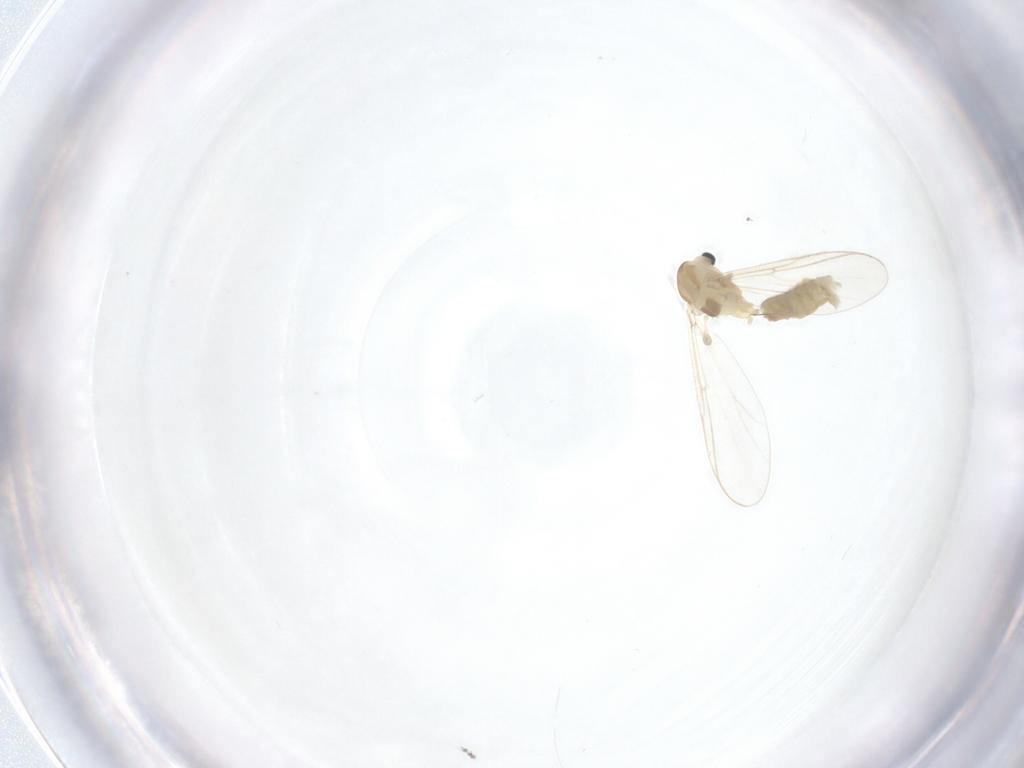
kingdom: Animalia
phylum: Arthropoda
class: Insecta
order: Diptera
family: Chironomidae
